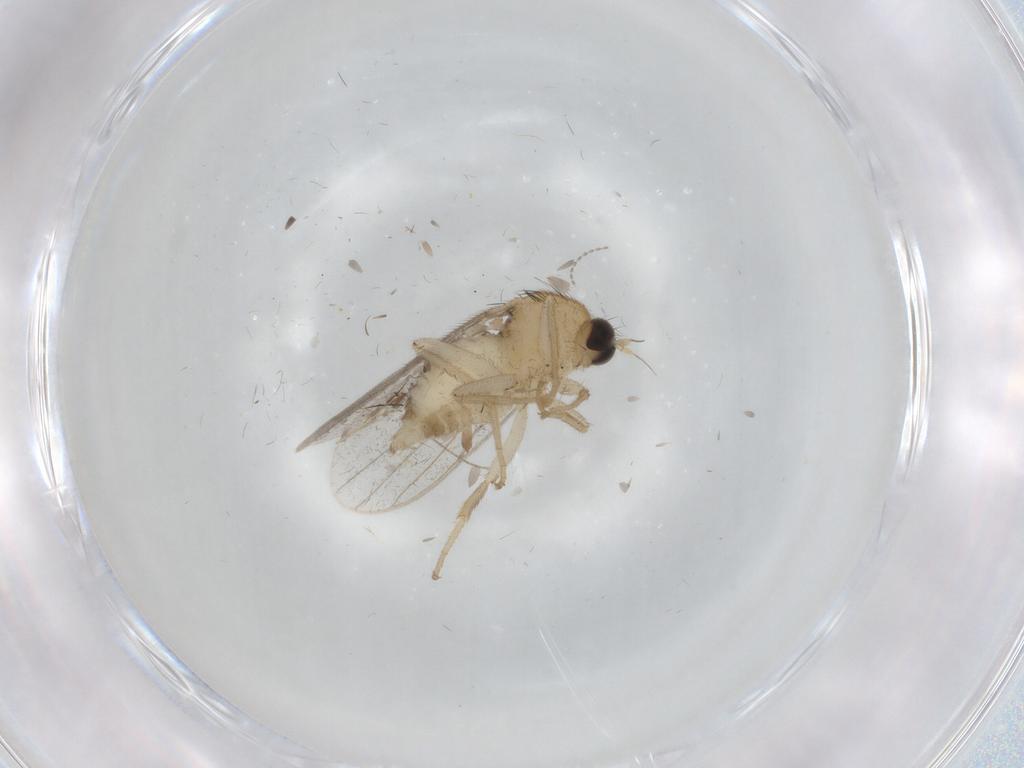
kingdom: Animalia
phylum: Arthropoda
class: Insecta
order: Diptera
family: Hybotidae
